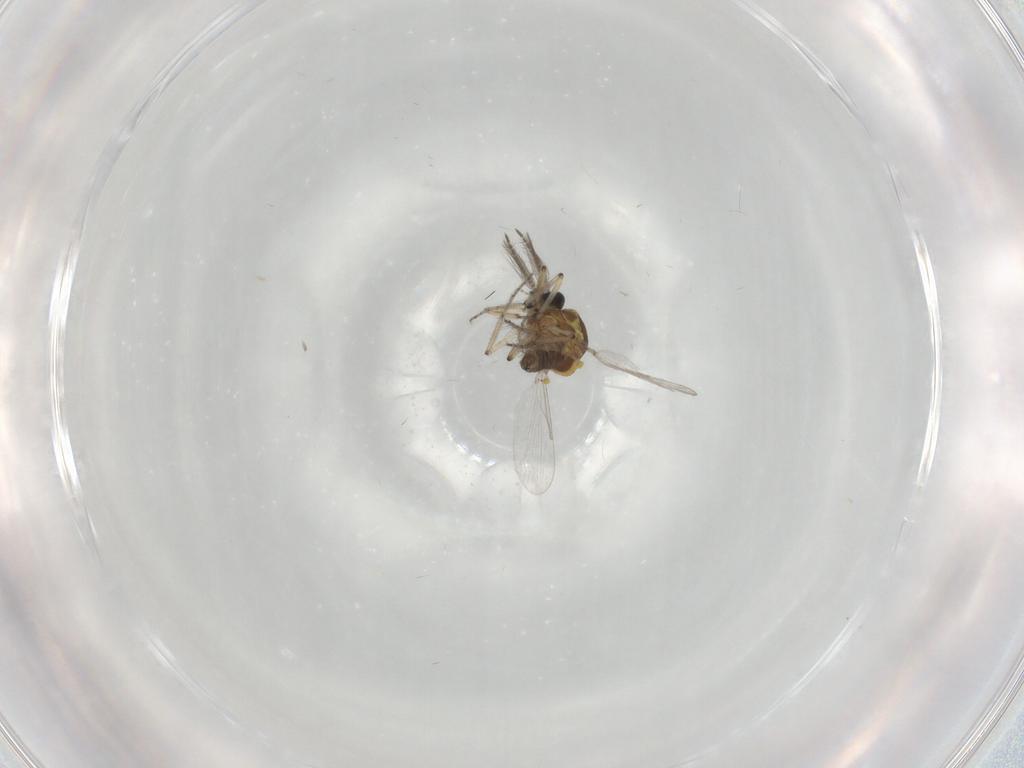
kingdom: Animalia
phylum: Arthropoda
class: Insecta
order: Diptera
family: Ceratopogonidae
